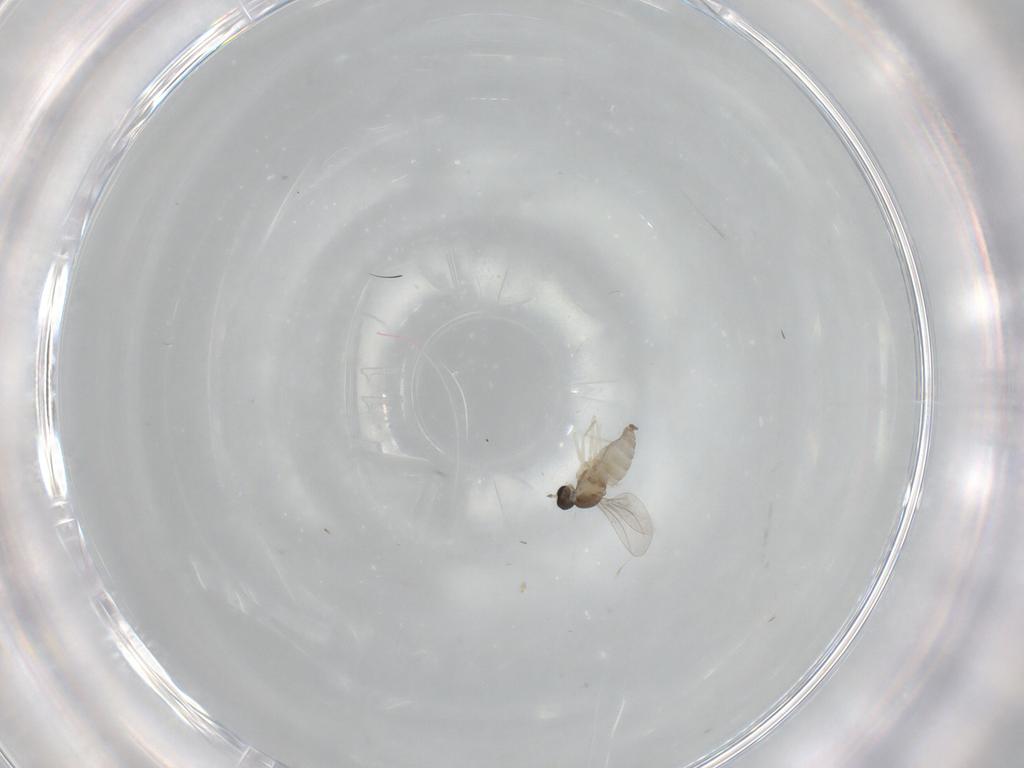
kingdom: Animalia
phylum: Arthropoda
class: Insecta
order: Diptera
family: Cecidomyiidae
